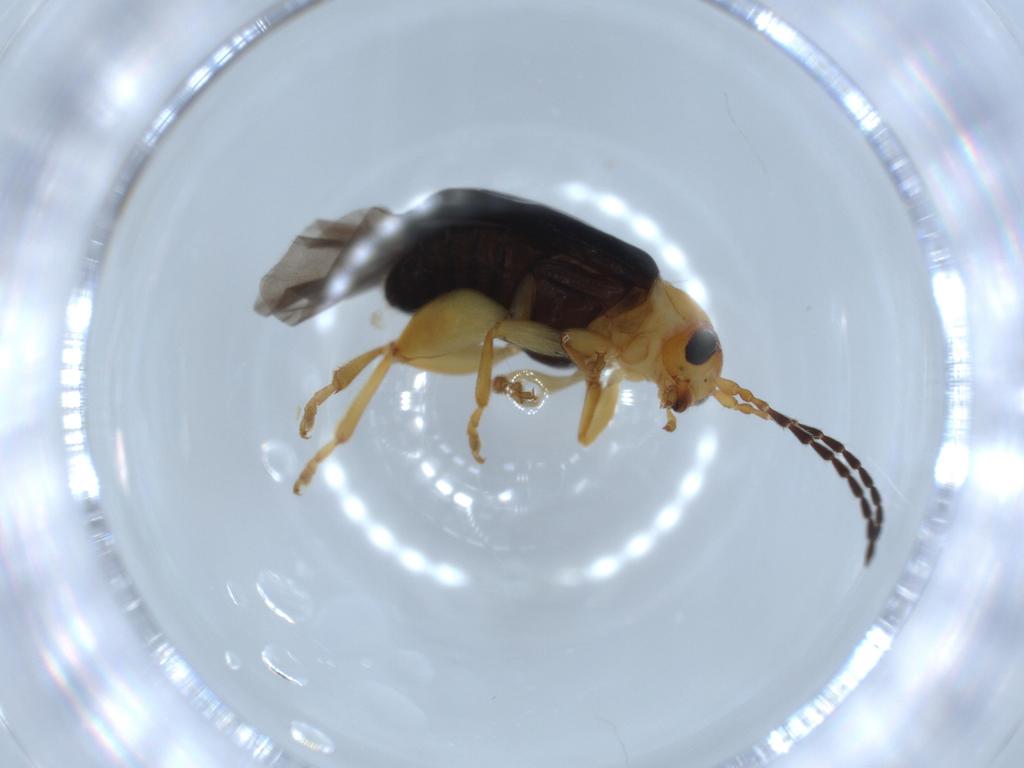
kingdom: Animalia
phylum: Arthropoda
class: Insecta
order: Coleoptera
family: Chrysomelidae
